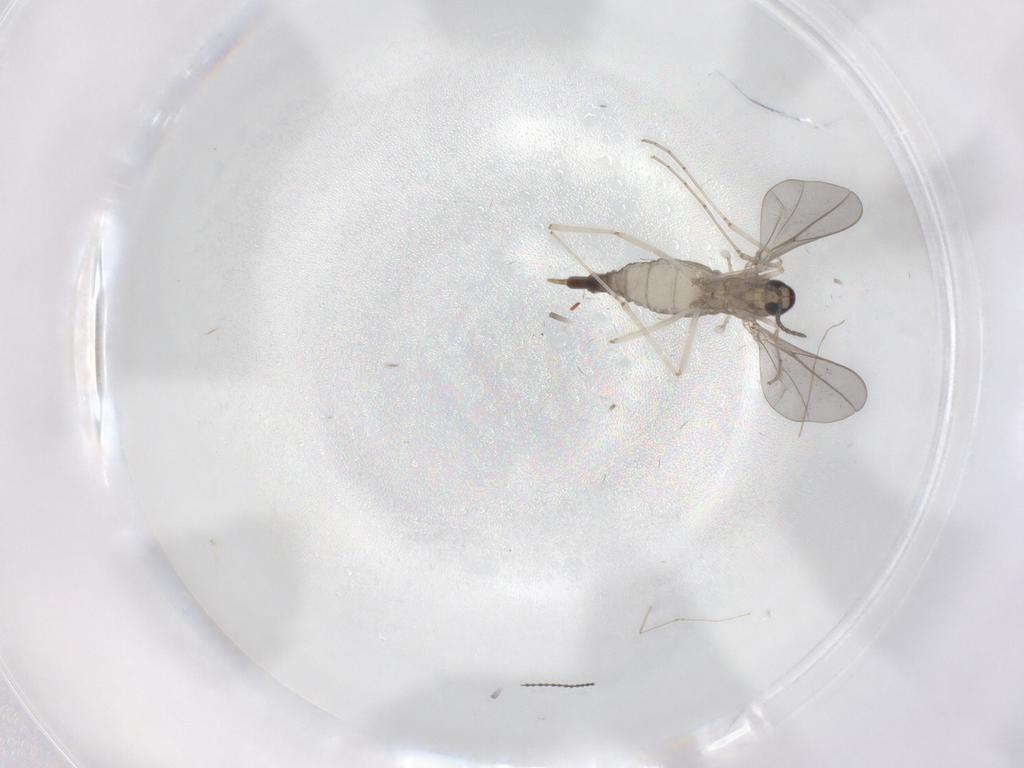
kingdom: Animalia
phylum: Arthropoda
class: Insecta
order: Diptera
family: Cecidomyiidae
